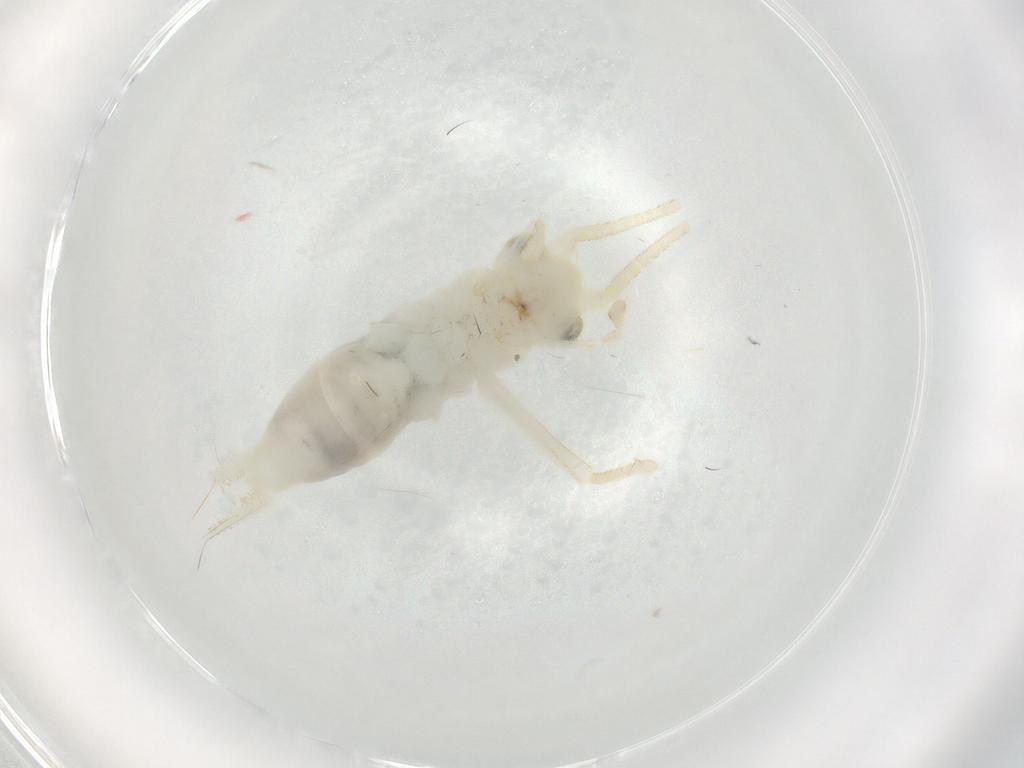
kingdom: Animalia
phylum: Arthropoda
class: Insecta
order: Orthoptera
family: Trigonidiidae
